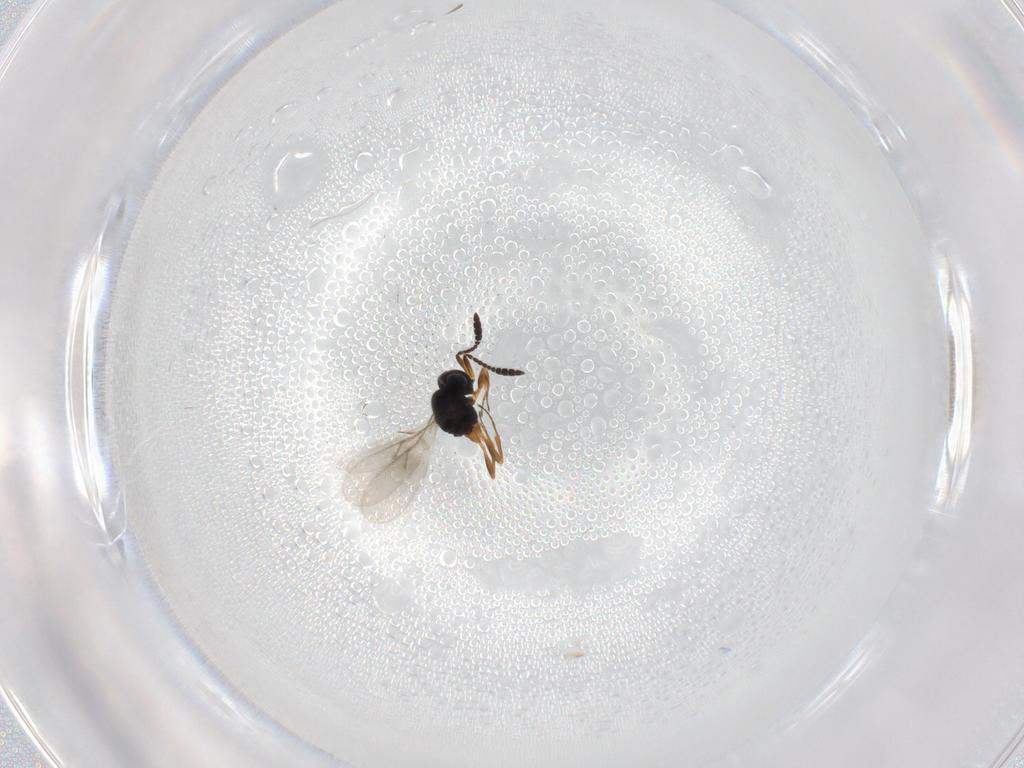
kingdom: Animalia
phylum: Arthropoda
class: Insecta
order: Hymenoptera
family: Scelionidae
